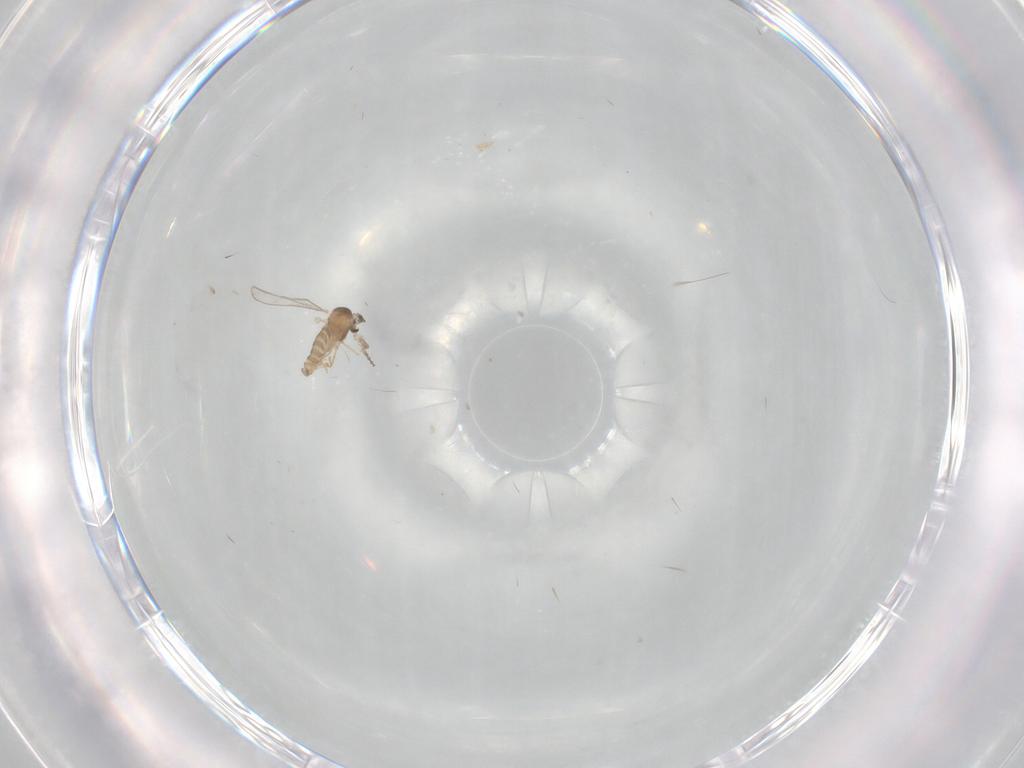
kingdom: Animalia
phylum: Arthropoda
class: Insecta
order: Diptera
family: Cecidomyiidae
